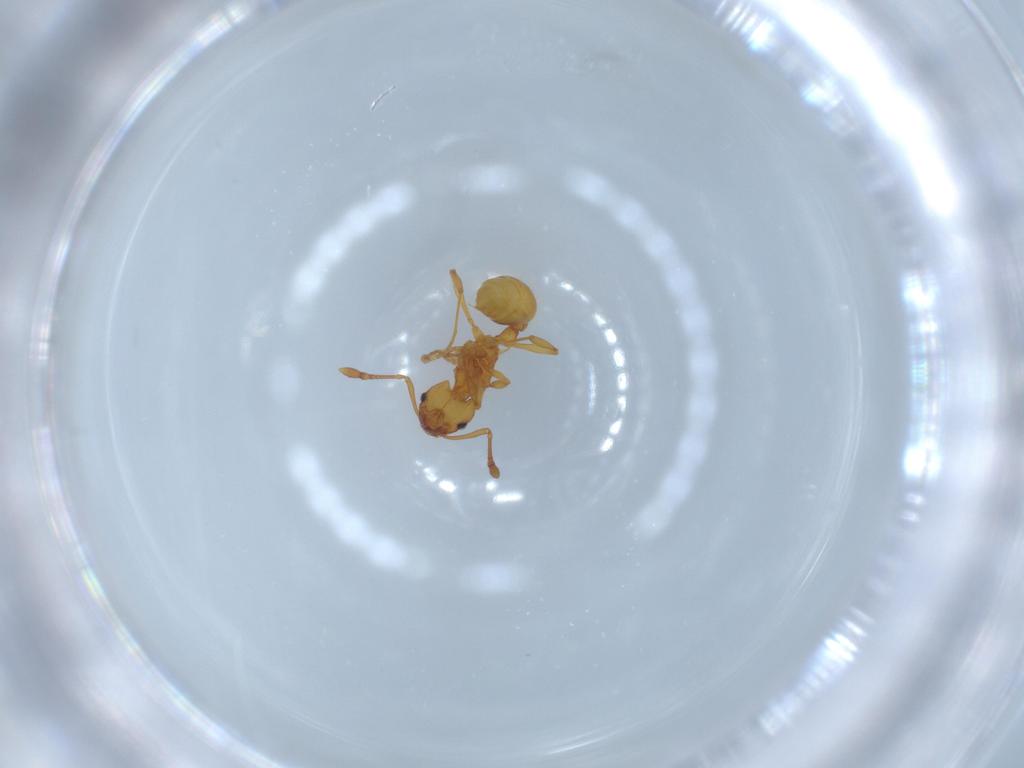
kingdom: Animalia
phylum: Arthropoda
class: Insecta
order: Hymenoptera
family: Formicidae
